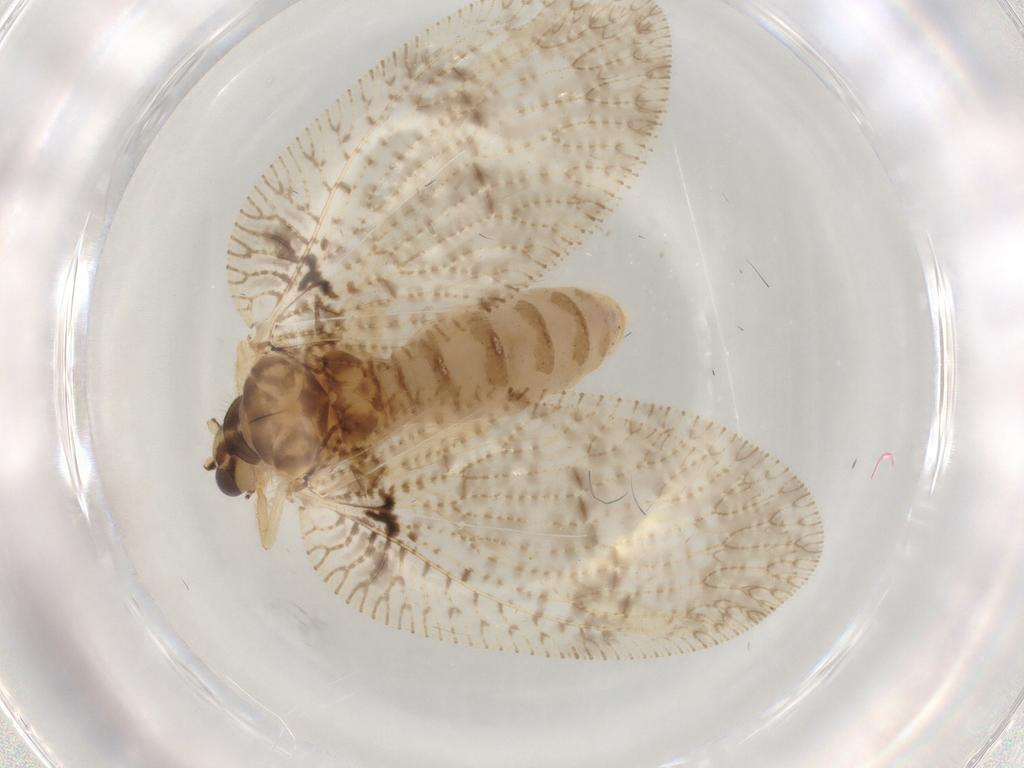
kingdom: Animalia
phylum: Arthropoda
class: Insecta
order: Neuroptera
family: Hemerobiidae
